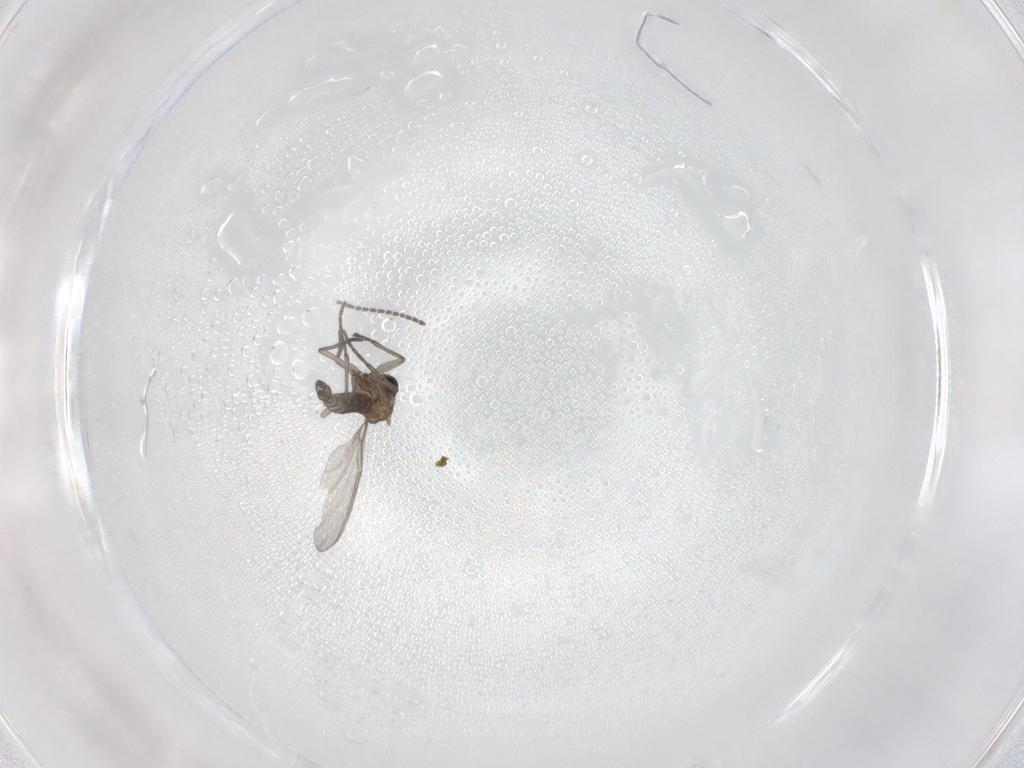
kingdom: Animalia
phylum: Arthropoda
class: Insecta
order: Diptera
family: Sciaridae
